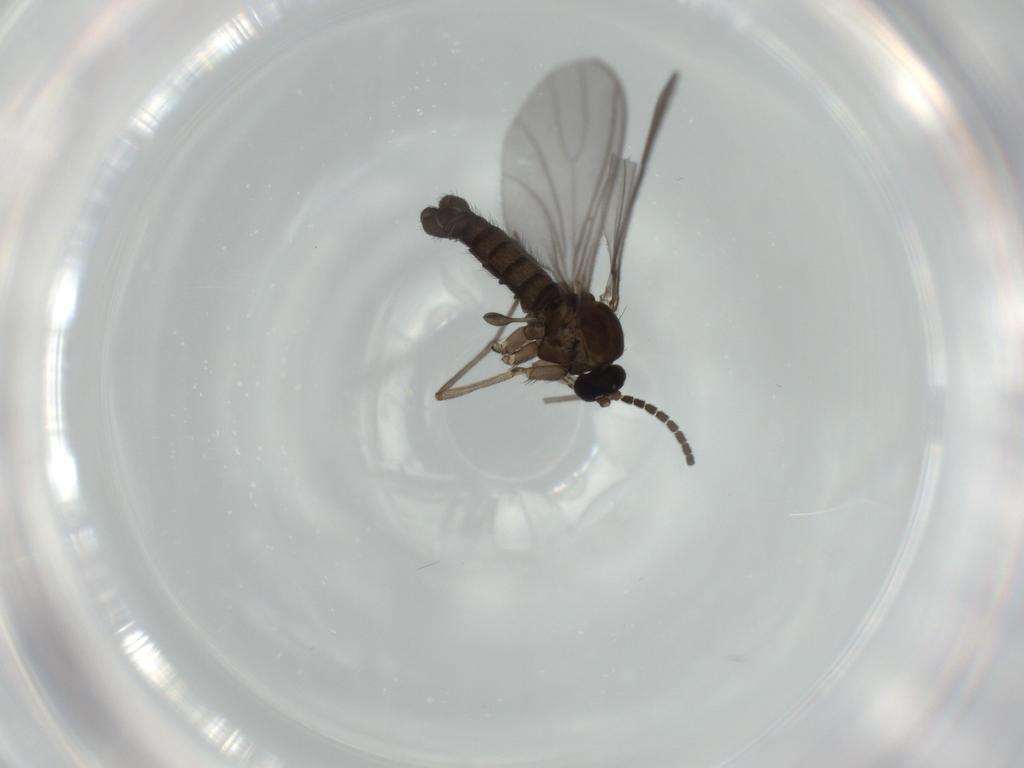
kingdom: Animalia
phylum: Arthropoda
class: Insecta
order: Diptera
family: Sciaridae
